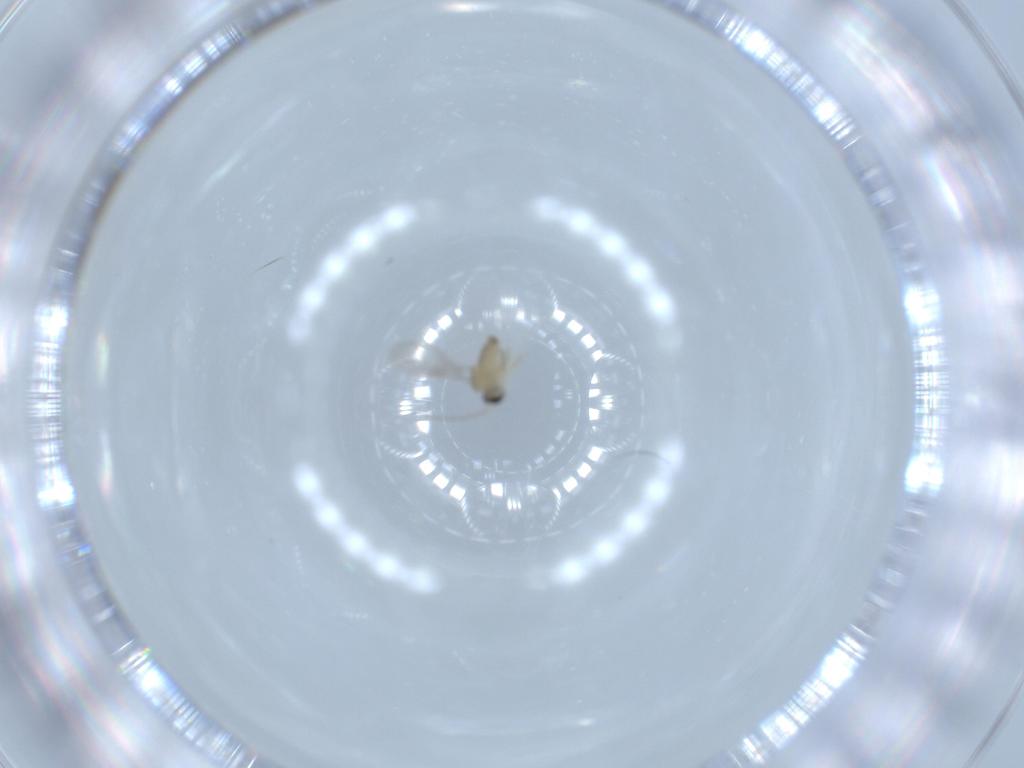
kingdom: Animalia
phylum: Arthropoda
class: Insecta
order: Diptera
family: Cecidomyiidae
